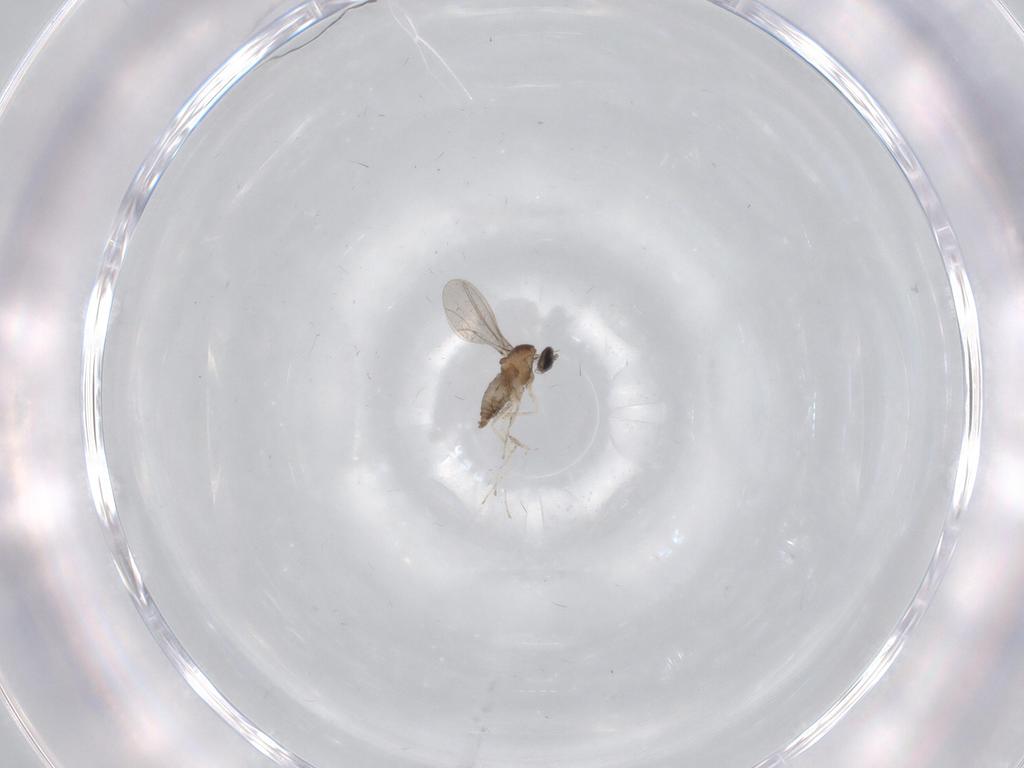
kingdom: Animalia
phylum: Arthropoda
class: Insecta
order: Diptera
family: Cecidomyiidae
